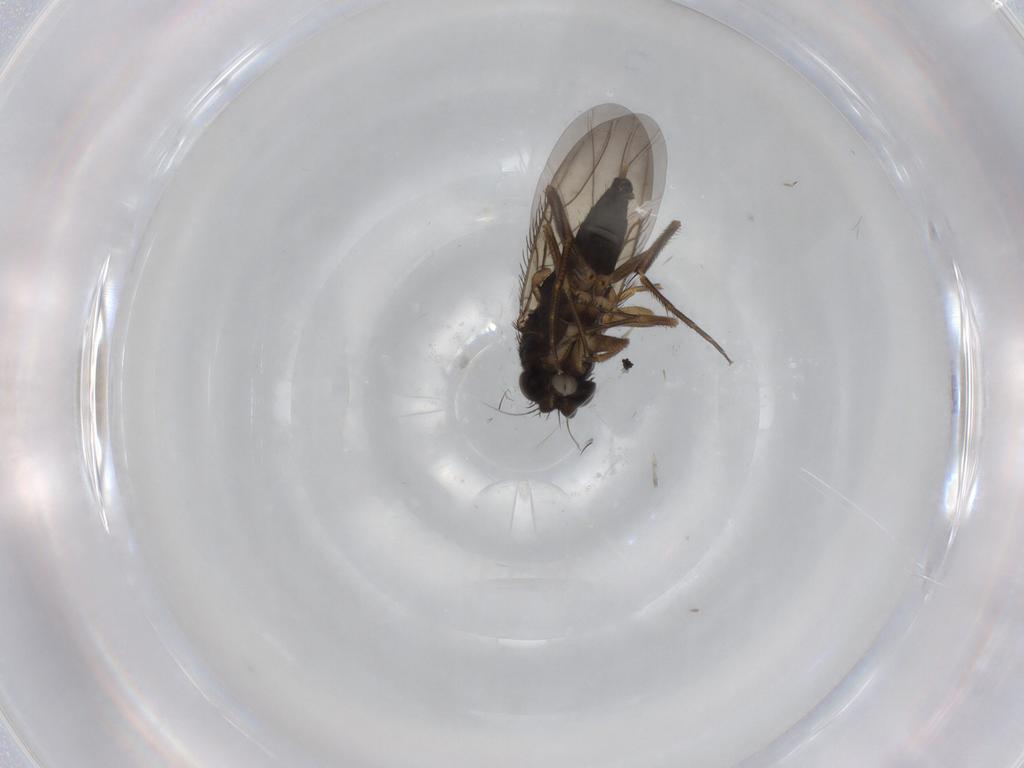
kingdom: Animalia
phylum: Arthropoda
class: Insecta
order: Diptera
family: Phoridae
